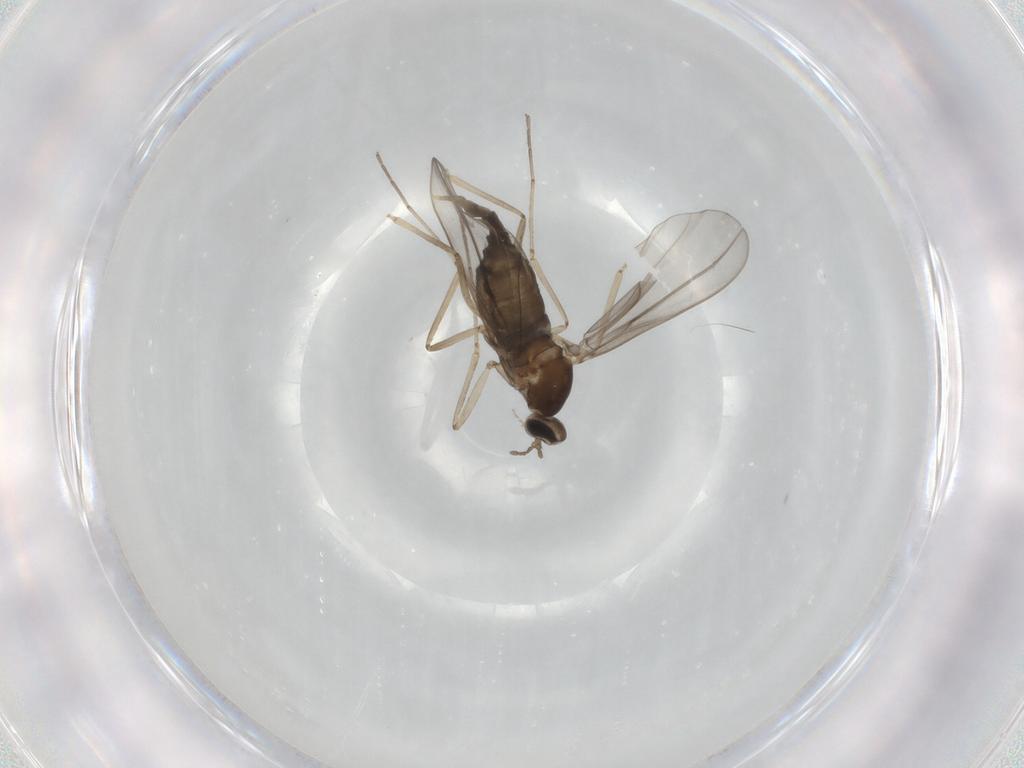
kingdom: Animalia
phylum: Arthropoda
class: Insecta
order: Diptera
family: Cecidomyiidae
